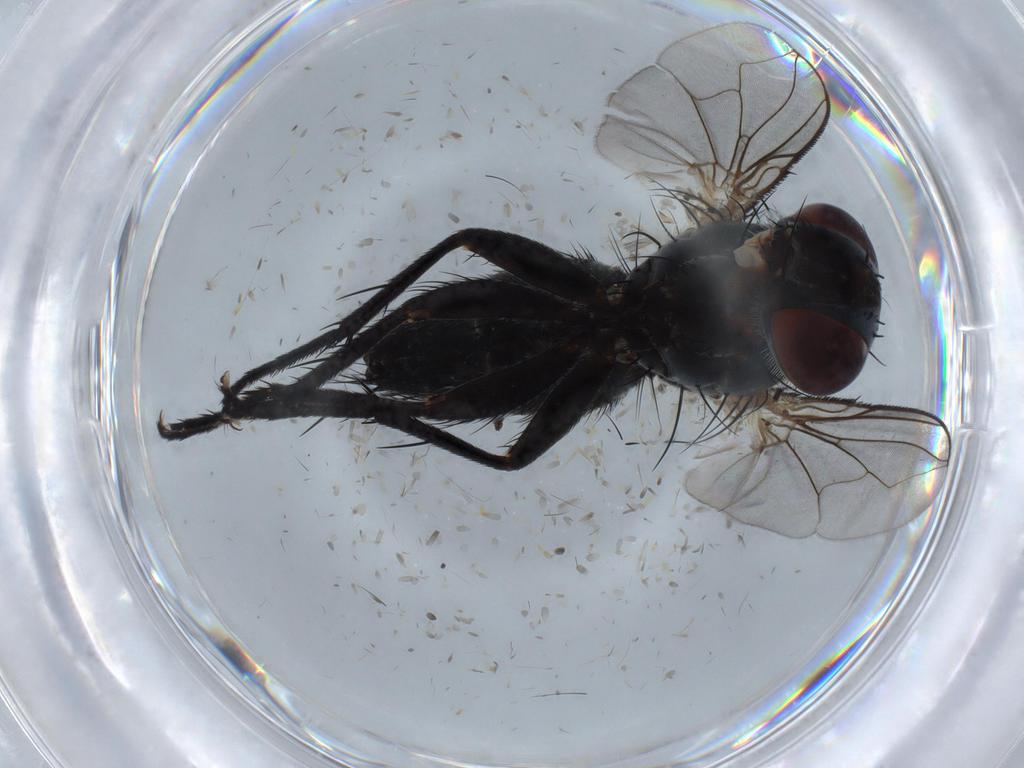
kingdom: Animalia
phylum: Arthropoda
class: Insecta
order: Diptera
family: Tachinidae
